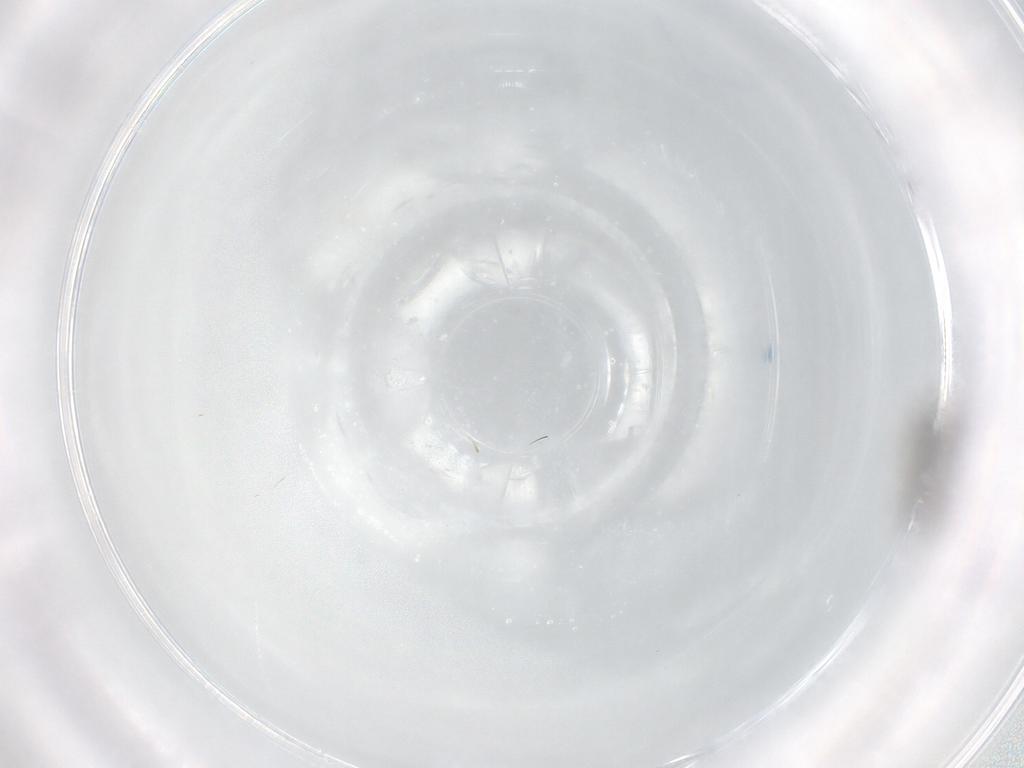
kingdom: Animalia
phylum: Arthropoda
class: Insecta
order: Diptera
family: Sciaridae
